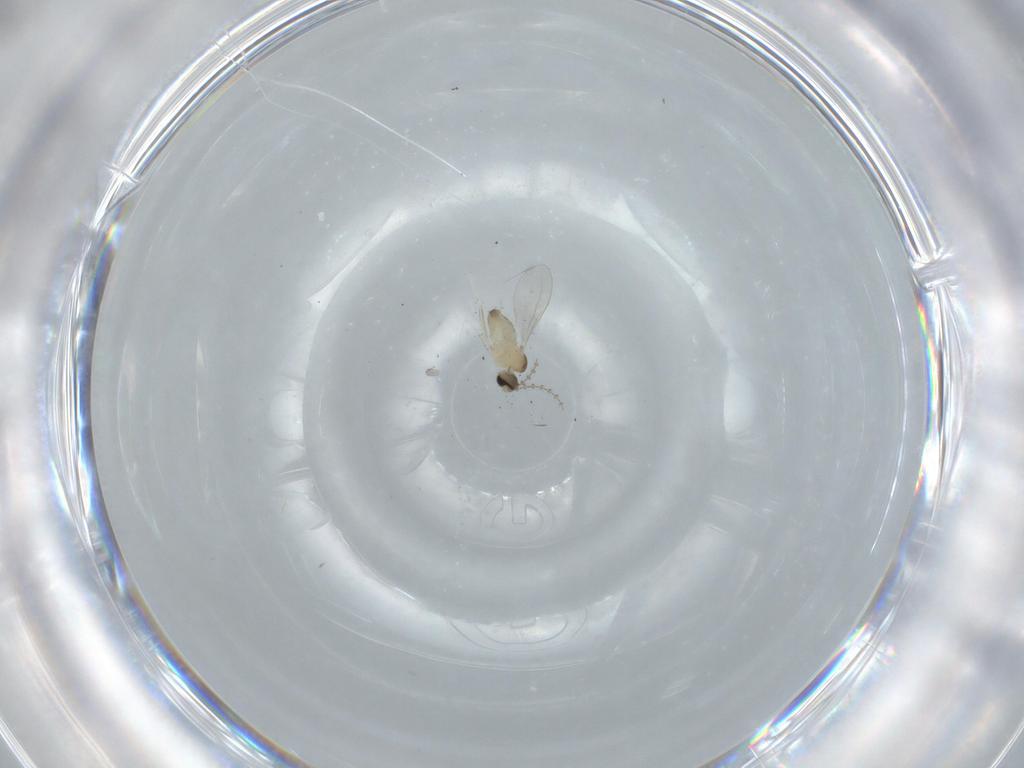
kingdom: Animalia
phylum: Arthropoda
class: Insecta
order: Diptera
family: Cecidomyiidae
